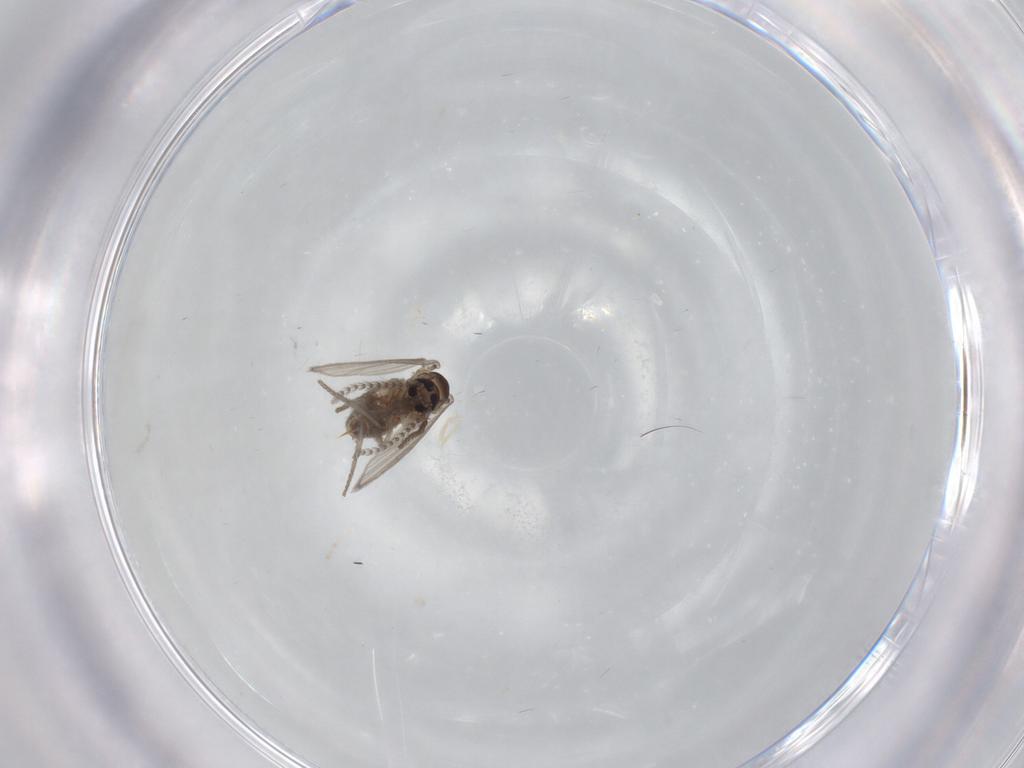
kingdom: Animalia
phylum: Arthropoda
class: Insecta
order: Diptera
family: Psychodidae
